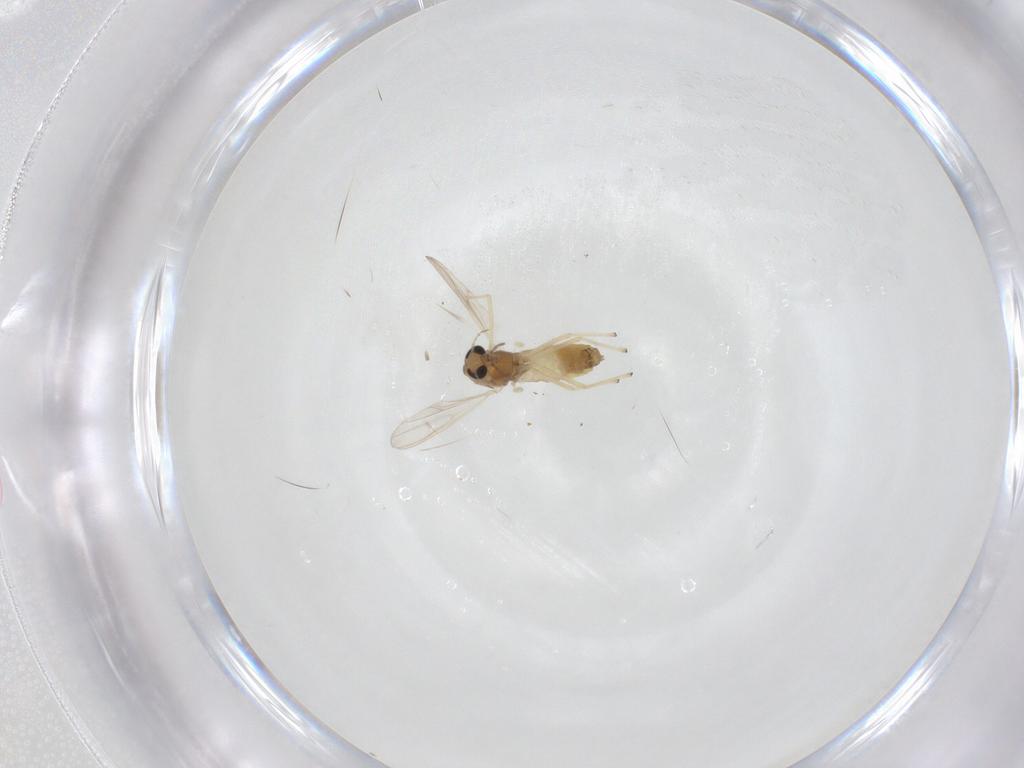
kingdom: Animalia
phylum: Arthropoda
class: Insecta
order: Diptera
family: Chironomidae
